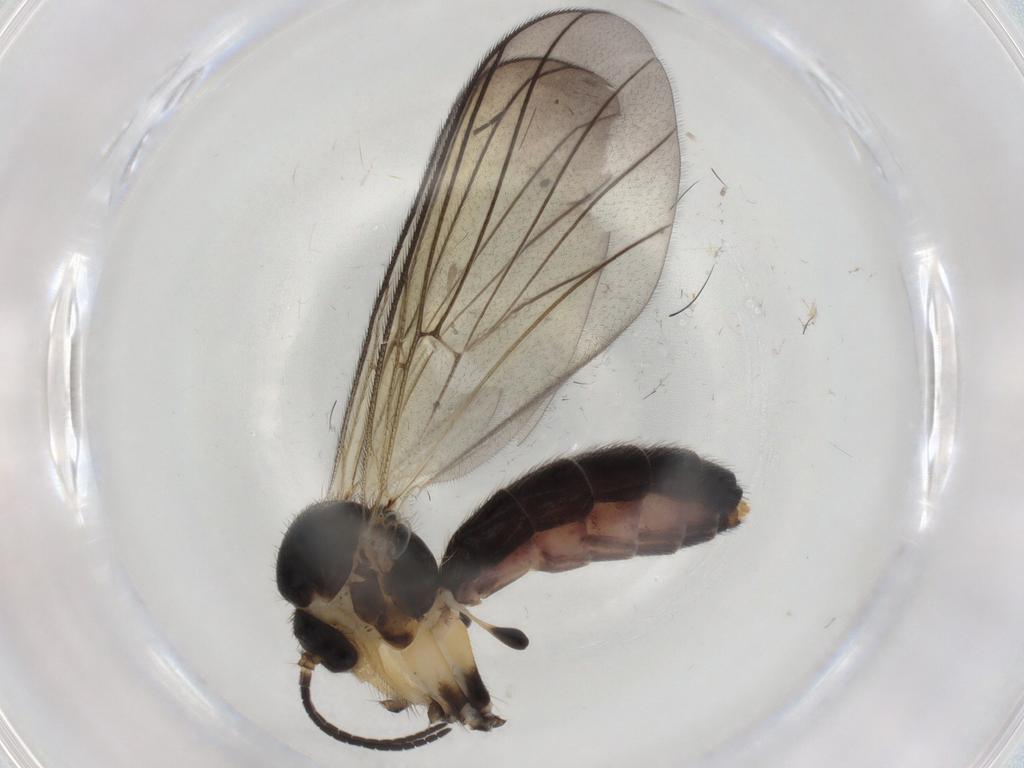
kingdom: Animalia
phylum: Arthropoda
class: Insecta
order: Diptera
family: Mycetophilidae
